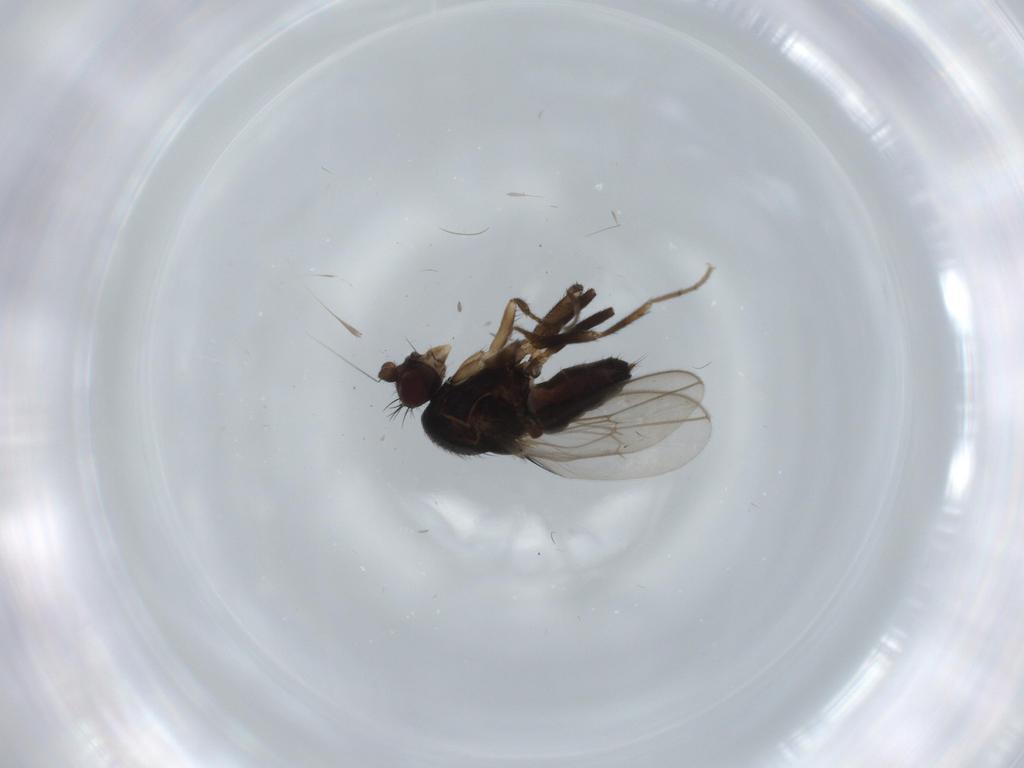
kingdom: Animalia
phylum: Arthropoda
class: Insecta
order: Diptera
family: Sphaeroceridae
